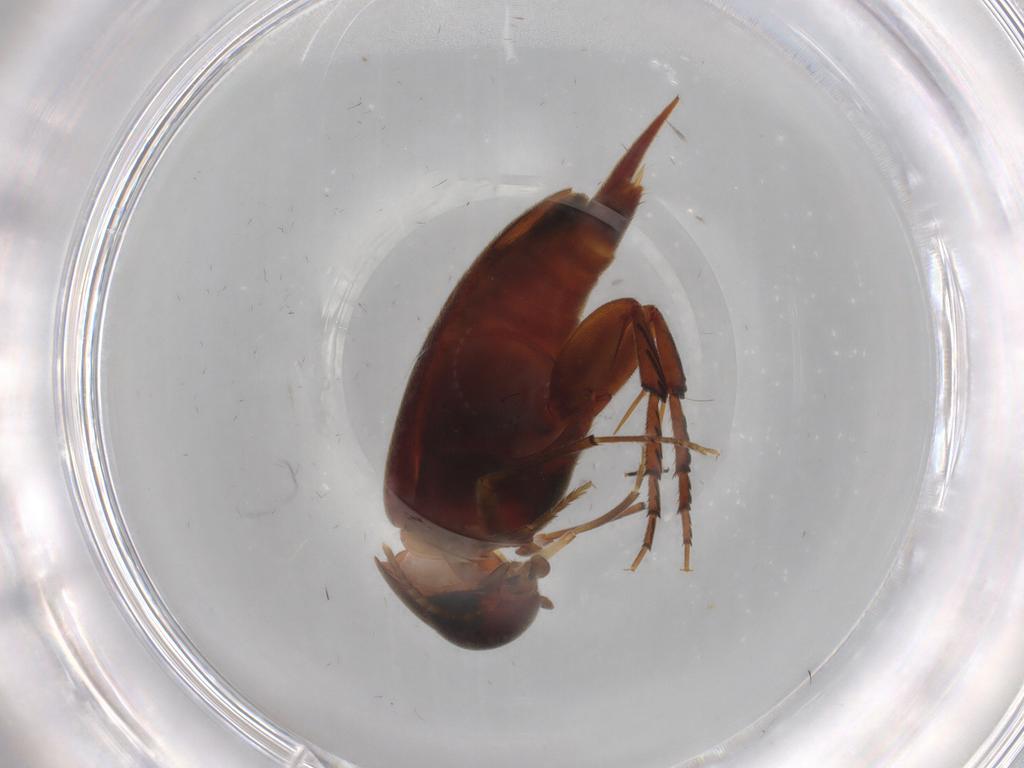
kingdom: Animalia
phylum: Arthropoda
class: Insecta
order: Coleoptera
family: Mordellidae
